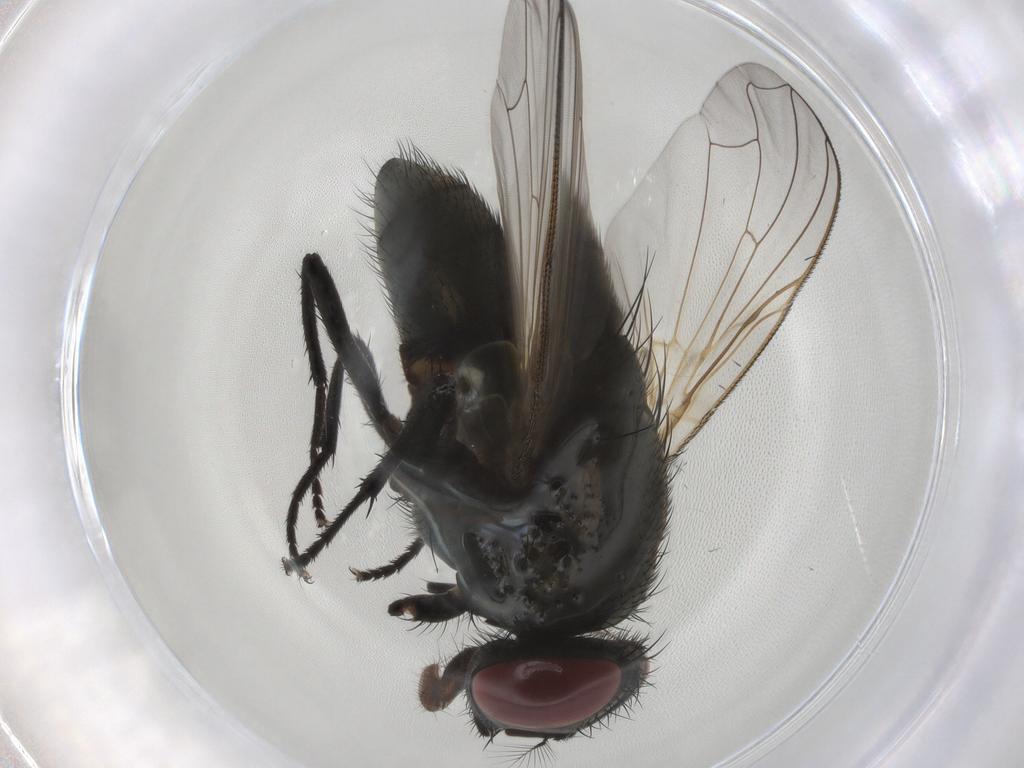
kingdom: Animalia
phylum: Arthropoda
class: Insecta
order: Diptera
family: Muscidae
